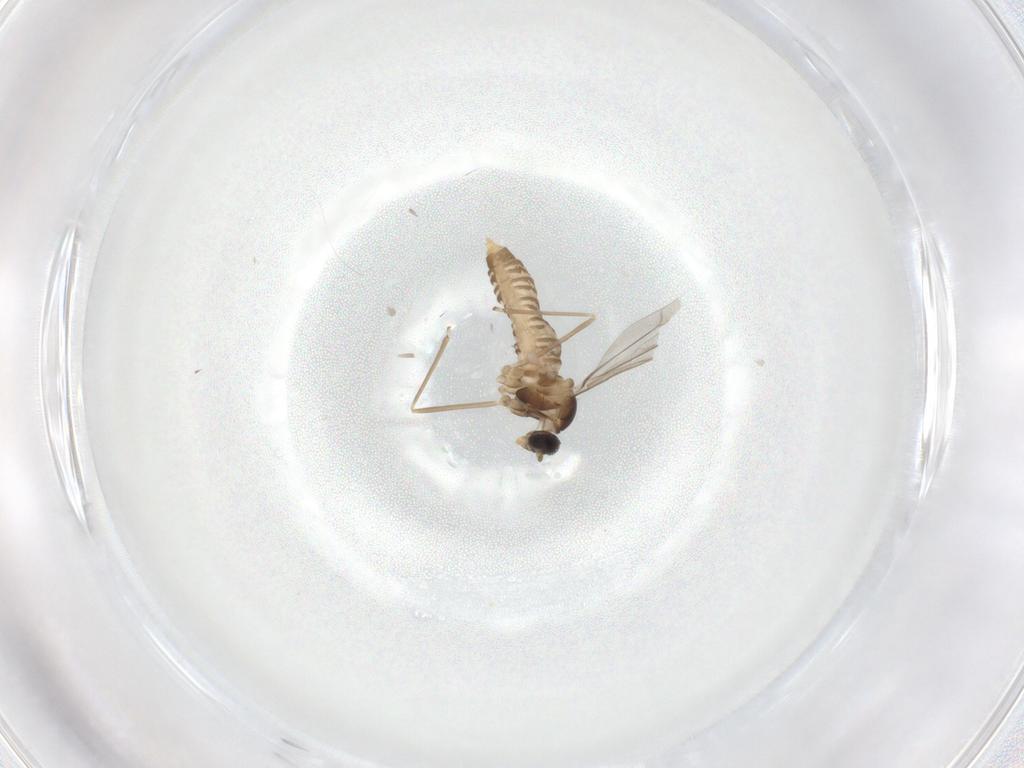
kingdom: Animalia
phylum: Arthropoda
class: Insecta
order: Diptera
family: Cecidomyiidae
